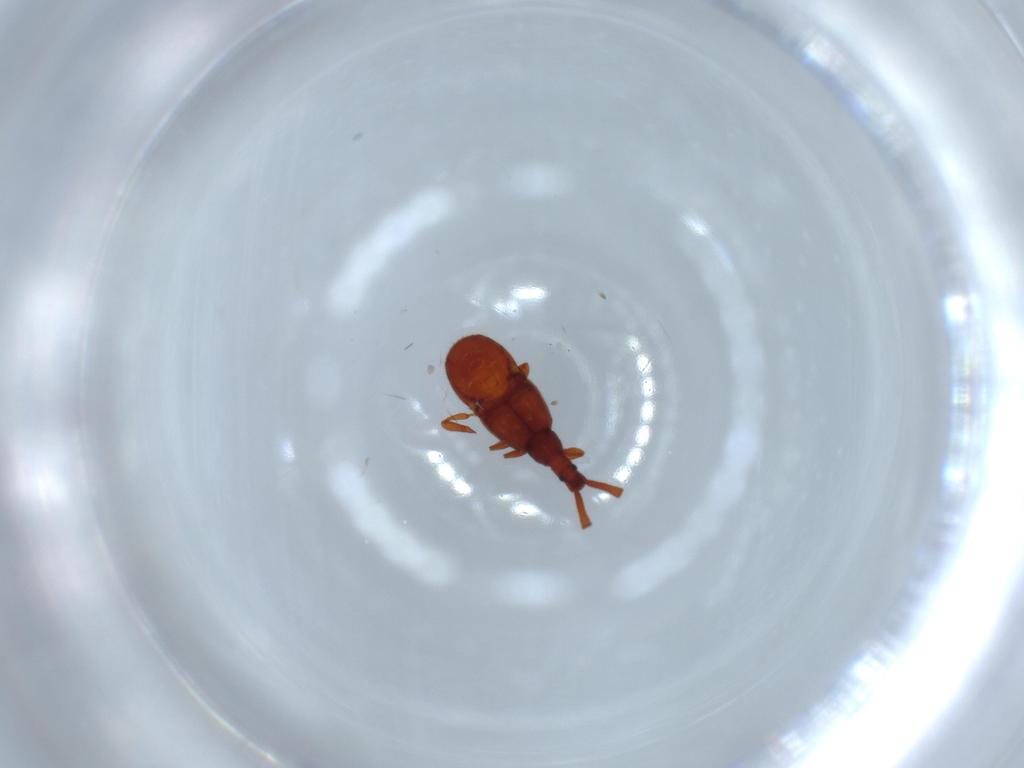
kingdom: Animalia
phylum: Arthropoda
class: Insecta
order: Coleoptera
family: Staphylinidae
